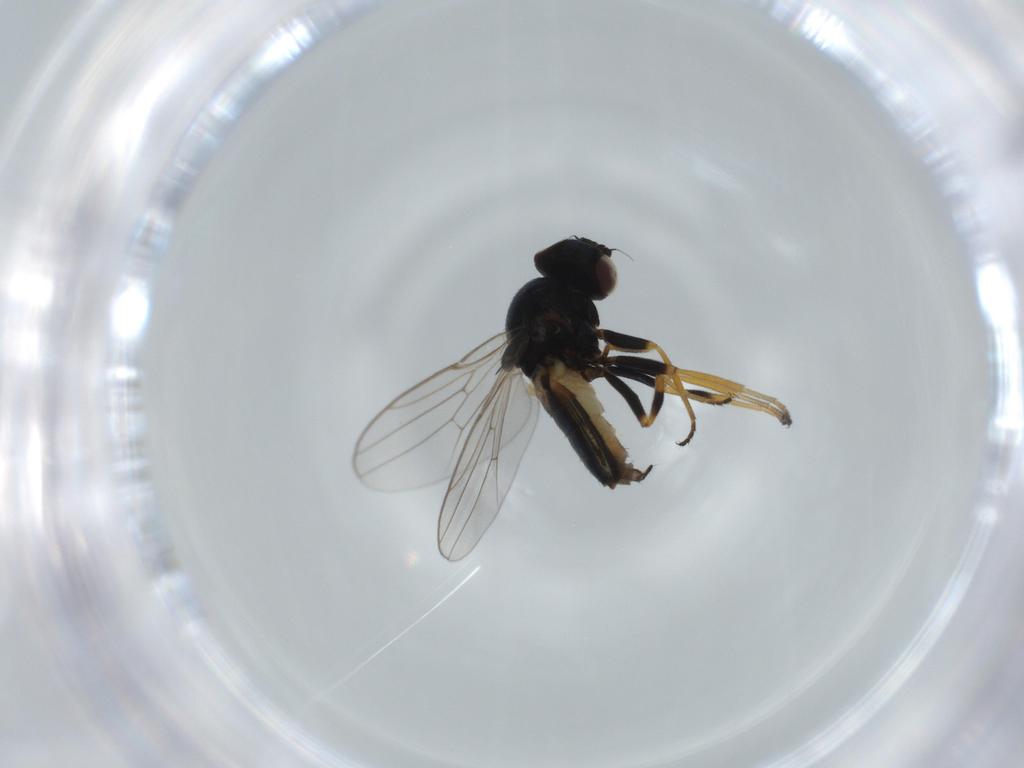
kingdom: Animalia
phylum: Arthropoda
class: Insecta
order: Diptera
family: Chloropidae
